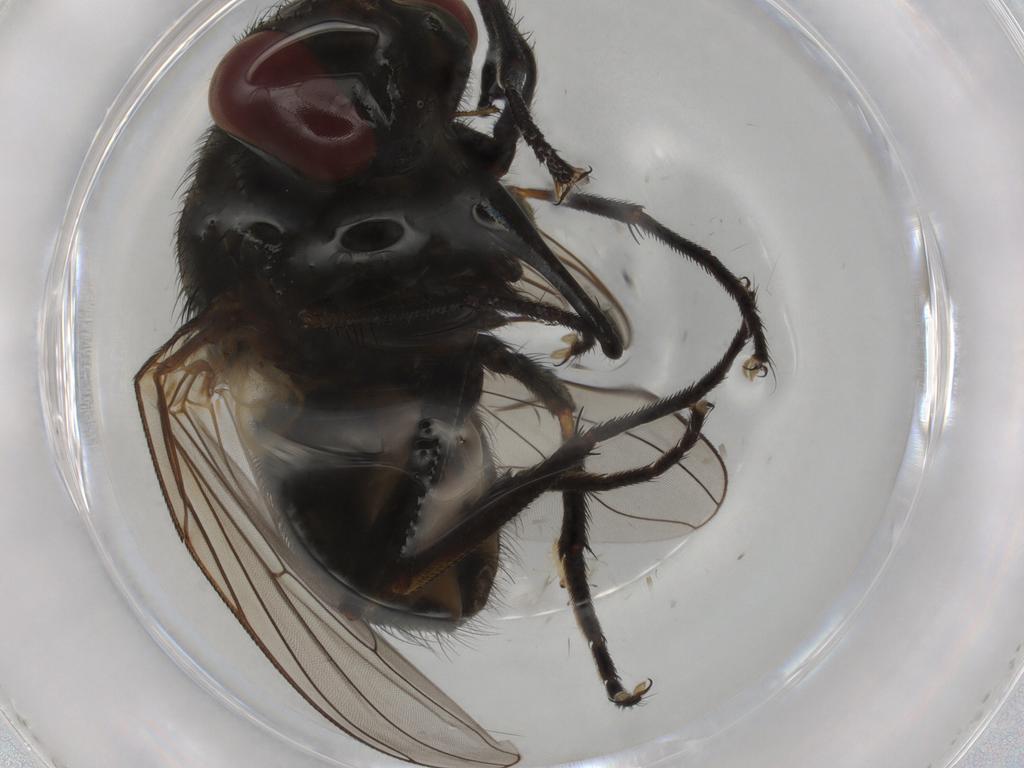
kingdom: Animalia
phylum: Arthropoda
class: Insecta
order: Diptera
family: Muscidae
